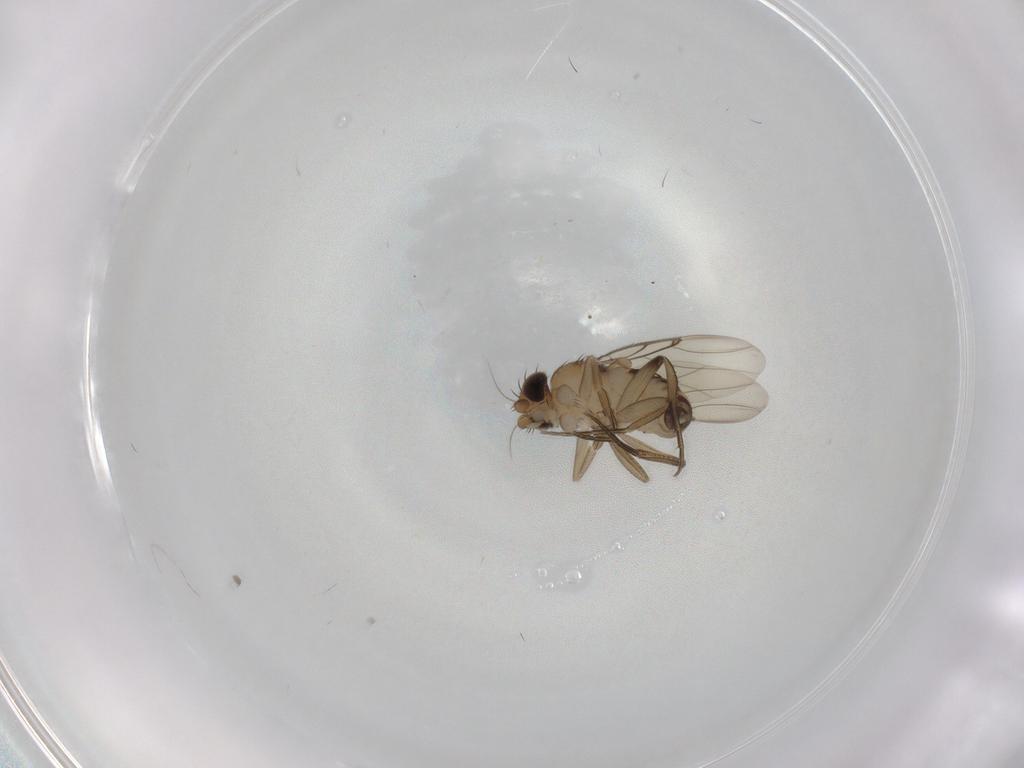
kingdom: Animalia
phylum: Arthropoda
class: Insecta
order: Diptera
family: Phoridae
